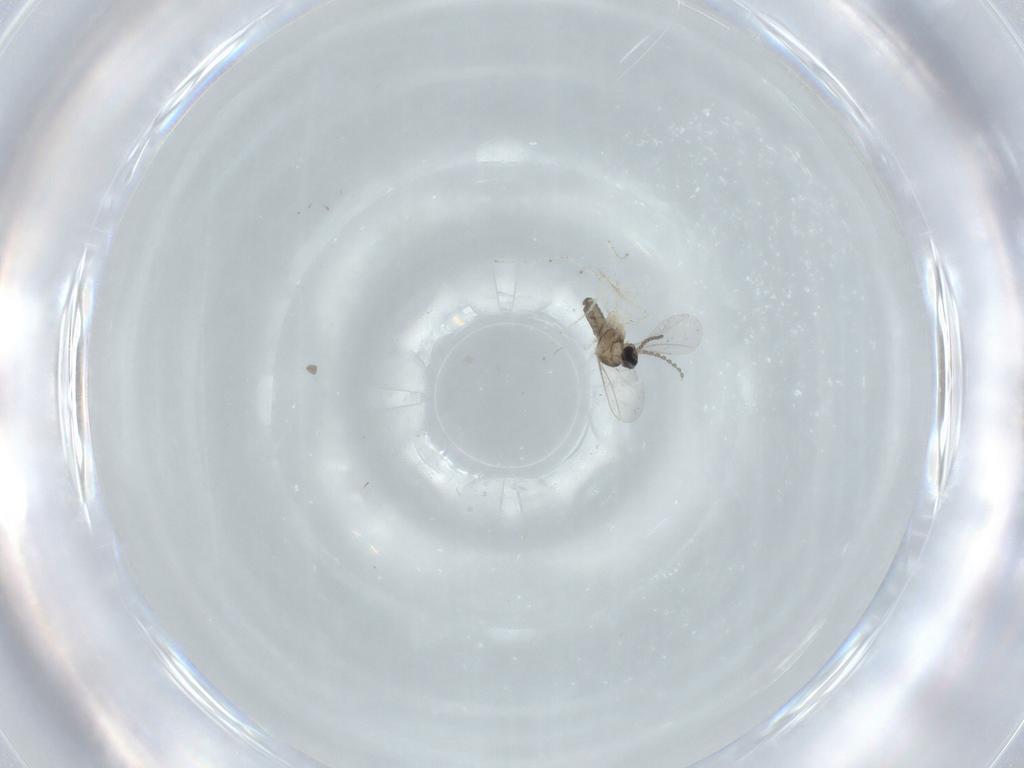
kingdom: Animalia
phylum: Arthropoda
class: Insecta
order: Diptera
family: Cecidomyiidae
